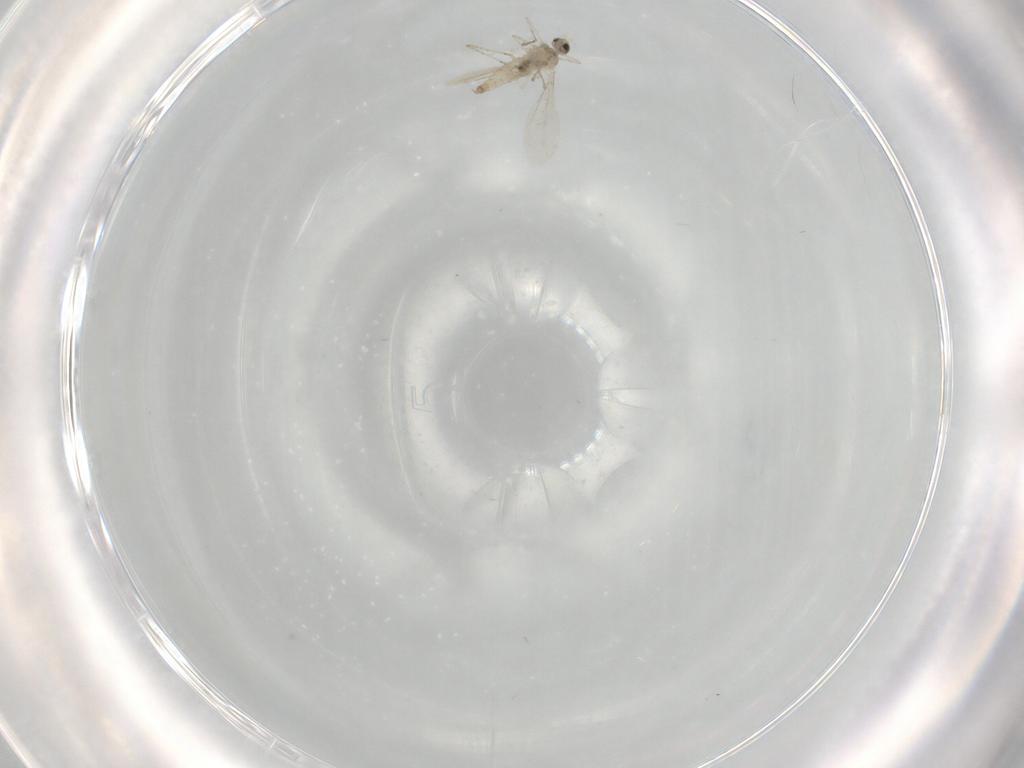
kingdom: Animalia
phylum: Arthropoda
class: Insecta
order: Diptera
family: Cecidomyiidae
